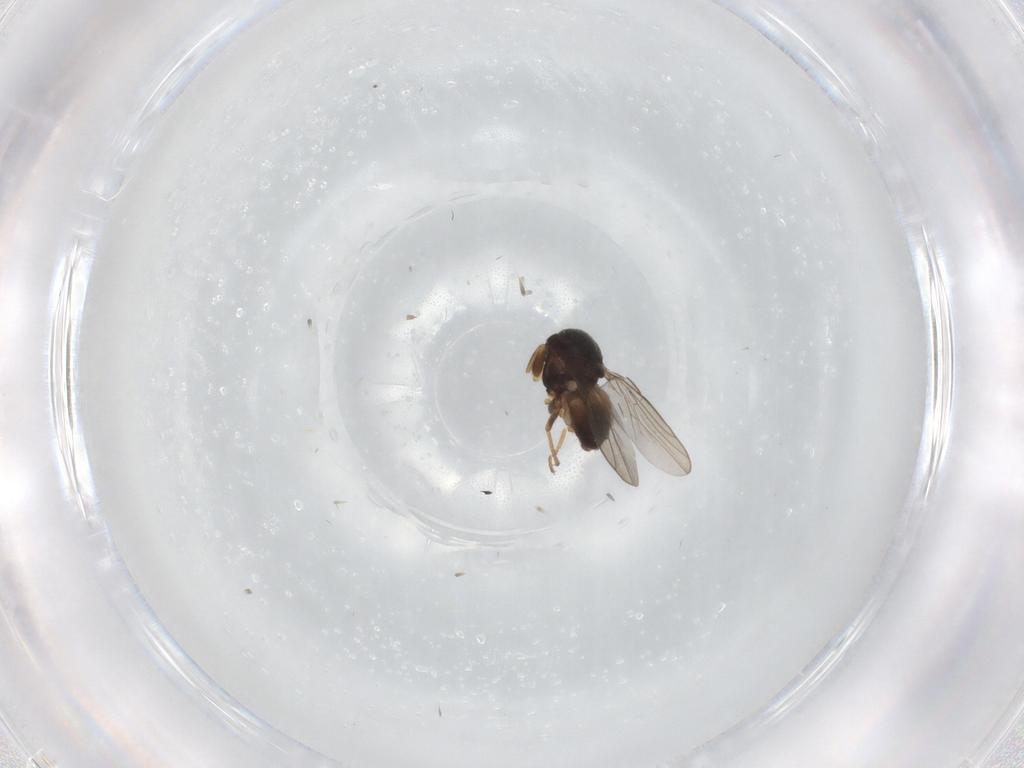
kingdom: Animalia
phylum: Arthropoda
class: Insecta
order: Diptera
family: Chloropidae
